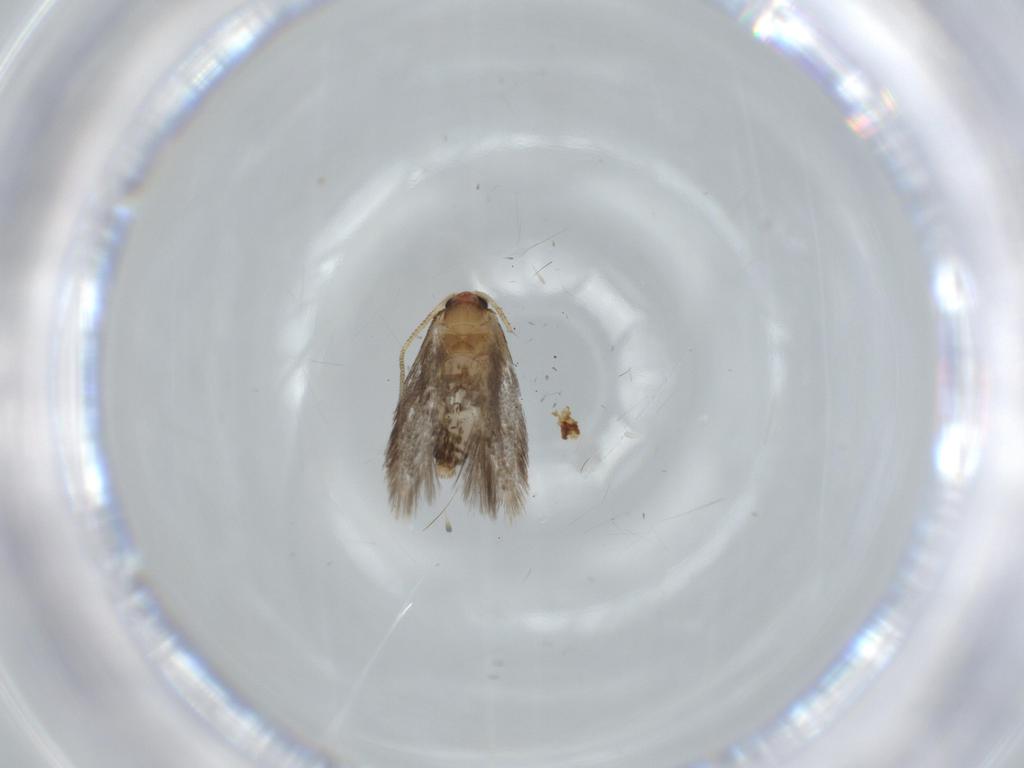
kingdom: Animalia
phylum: Arthropoda
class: Insecta
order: Lepidoptera
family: Nepticulidae
